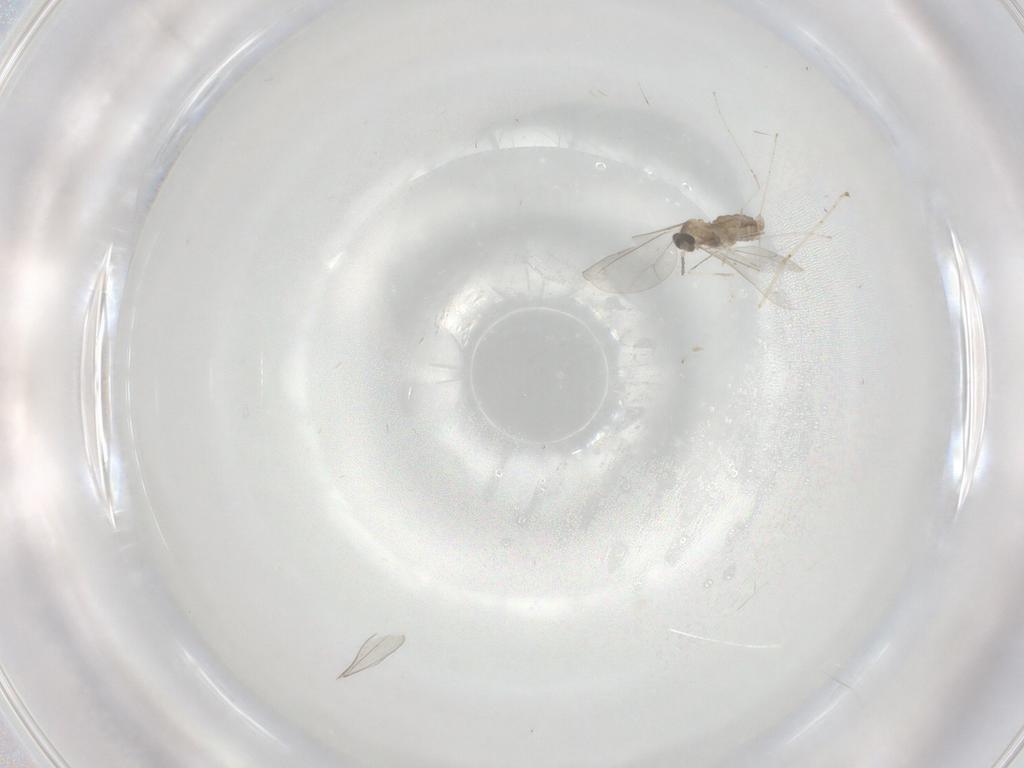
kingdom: Animalia
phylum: Arthropoda
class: Insecta
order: Diptera
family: Cecidomyiidae
